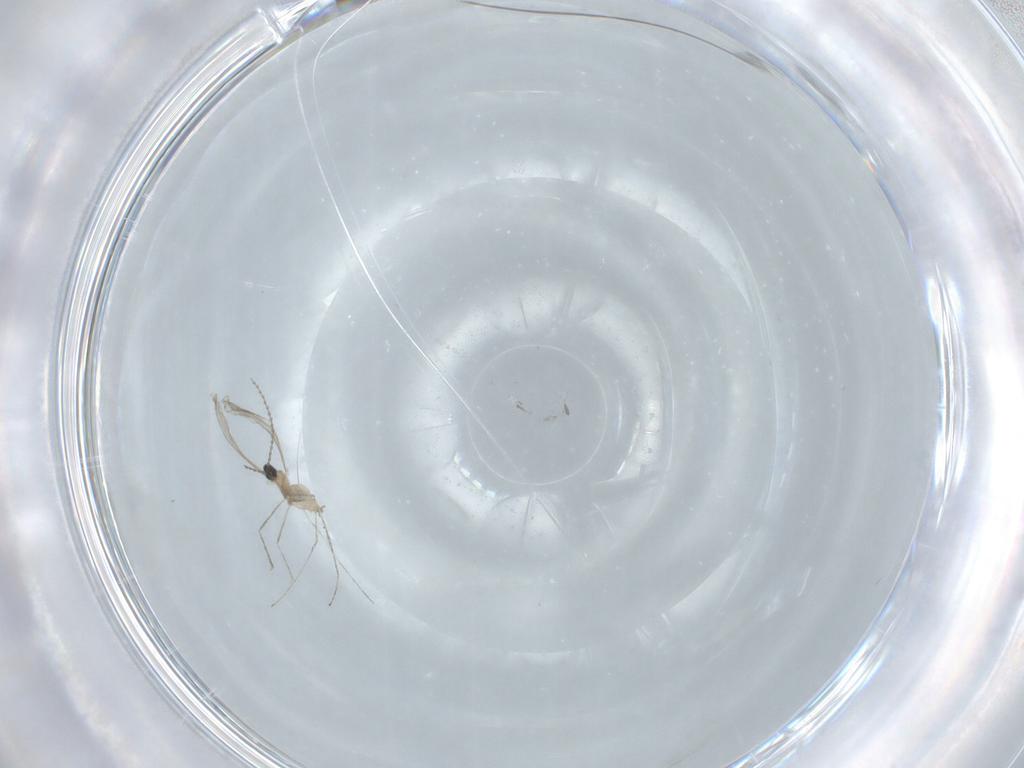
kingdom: Animalia
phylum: Arthropoda
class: Insecta
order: Diptera
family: Cecidomyiidae
